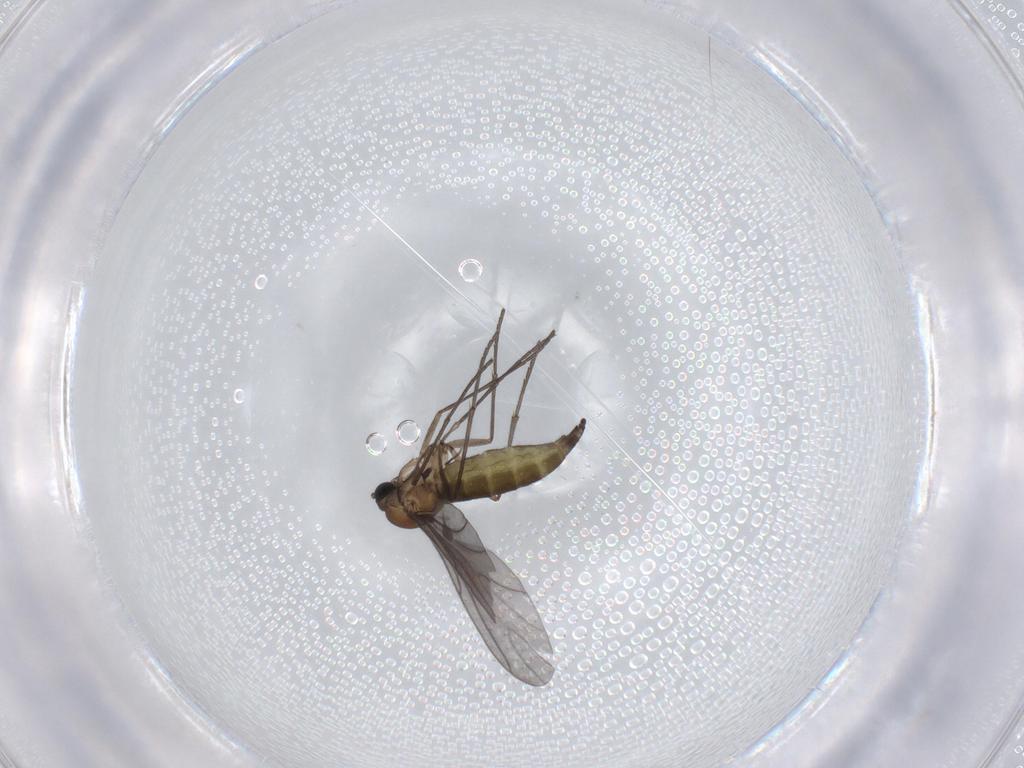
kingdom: Animalia
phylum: Arthropoda
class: Insecta
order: Diptera
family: Sciaridae
